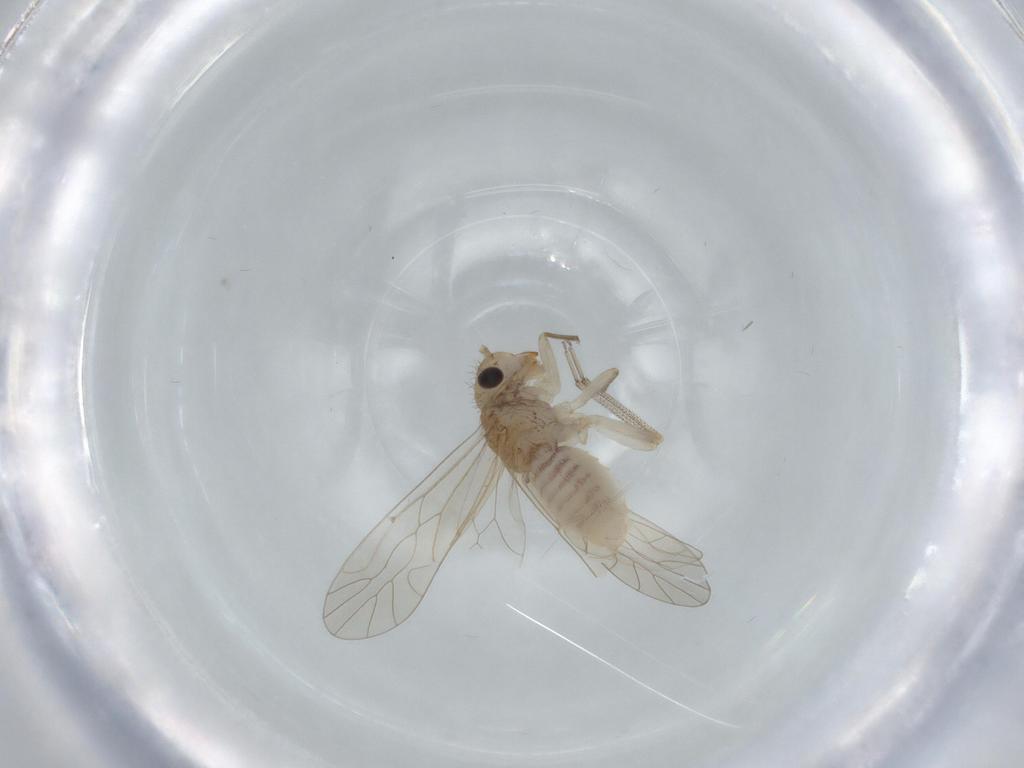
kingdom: Animalia
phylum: Arthropoda
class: Insecta
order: Psocodea
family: Caeciliusidae
